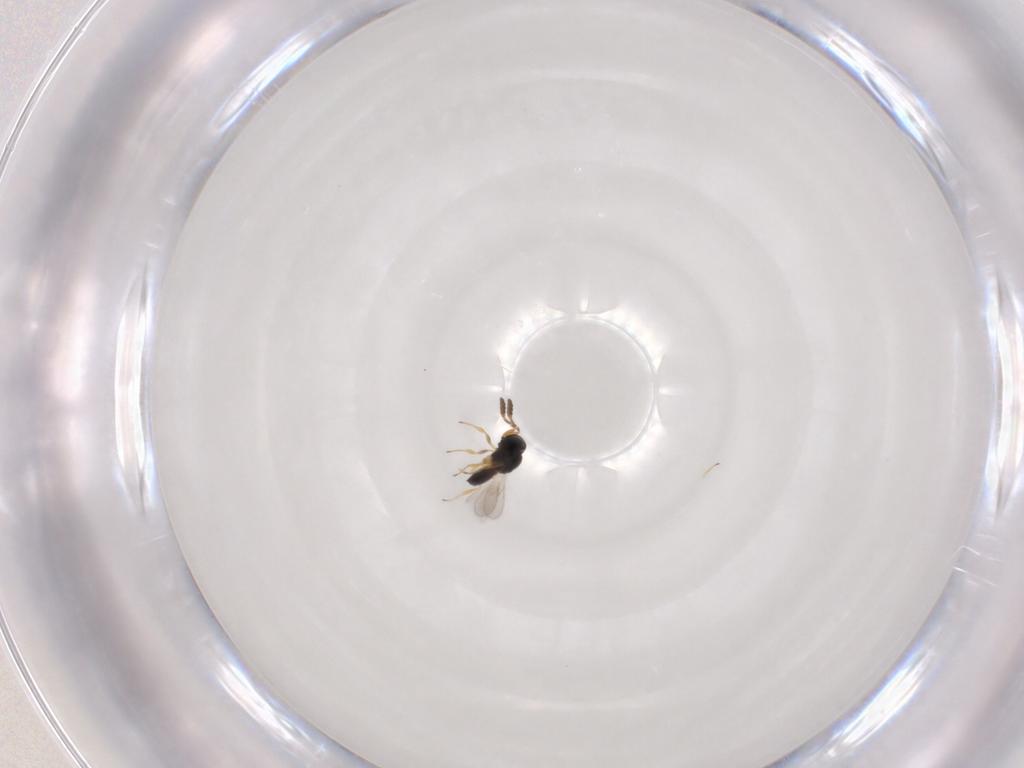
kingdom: Animalia
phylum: Arthropoda
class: Insecta
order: Hymenoptera
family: Scelionidae
